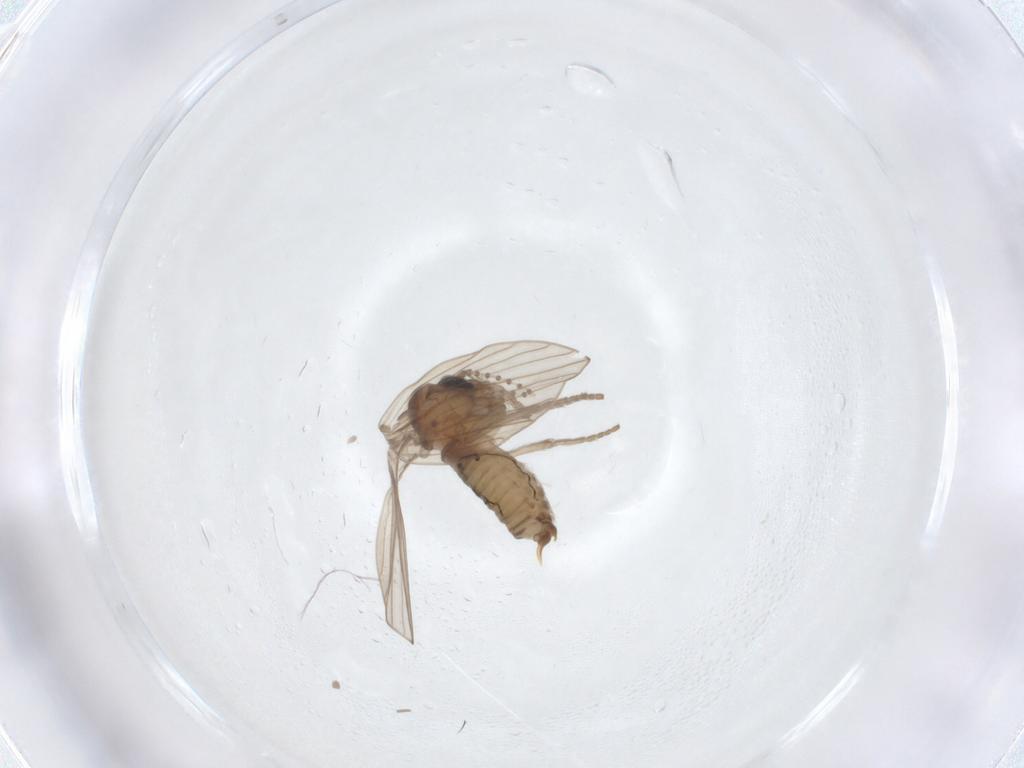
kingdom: Animalia
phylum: Arthropoda
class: Insecta
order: Diptera
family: Psychodidae
